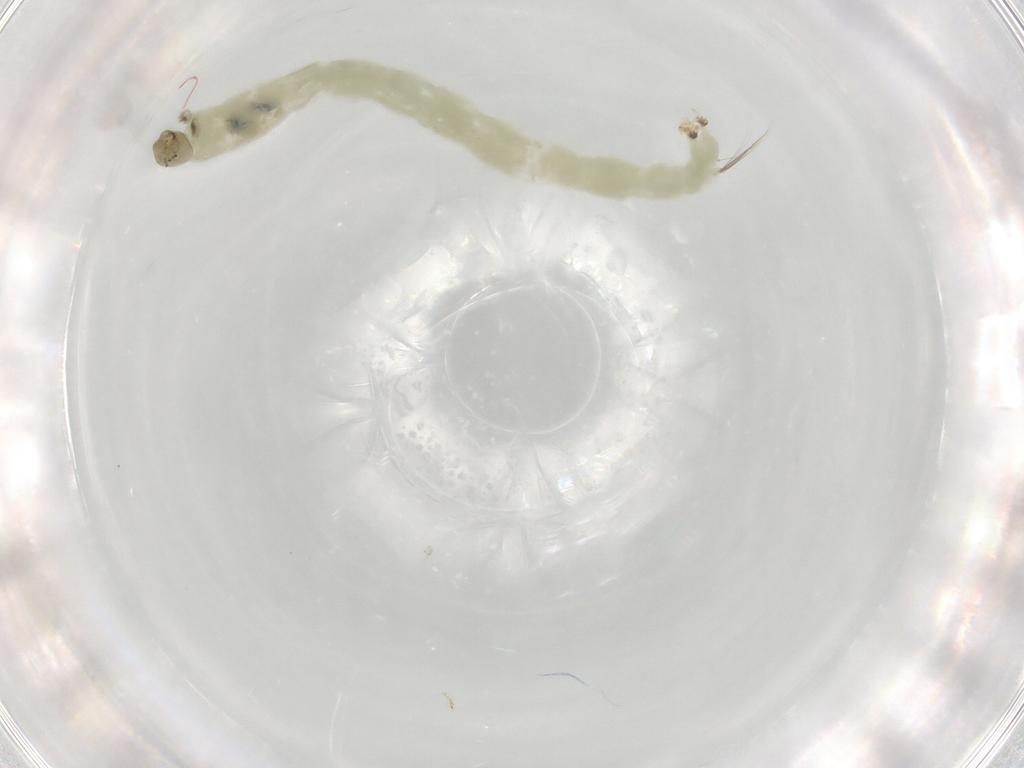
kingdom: Animalia
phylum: Arthropoda
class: Insecta
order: Diptera
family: Chironomidae
